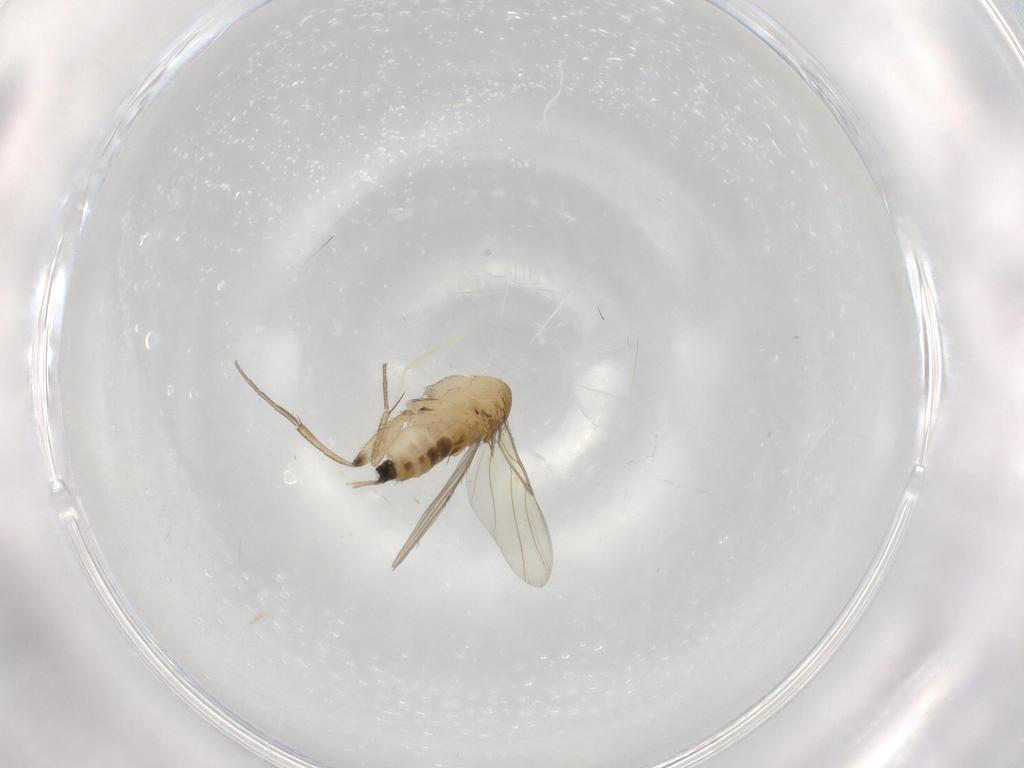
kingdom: Animalia
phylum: Arthropoda
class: Insecta
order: Diptera
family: Phoridae
